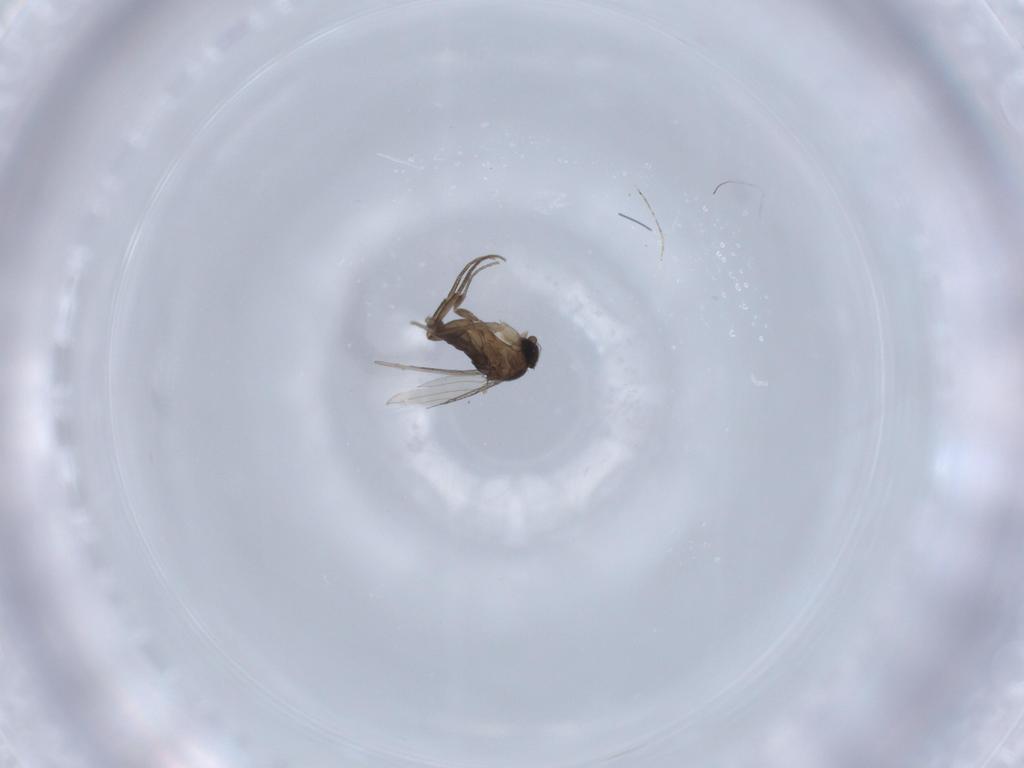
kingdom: Animalia
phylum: Arthropoda
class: Insecta
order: Diptera
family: Phoridae
